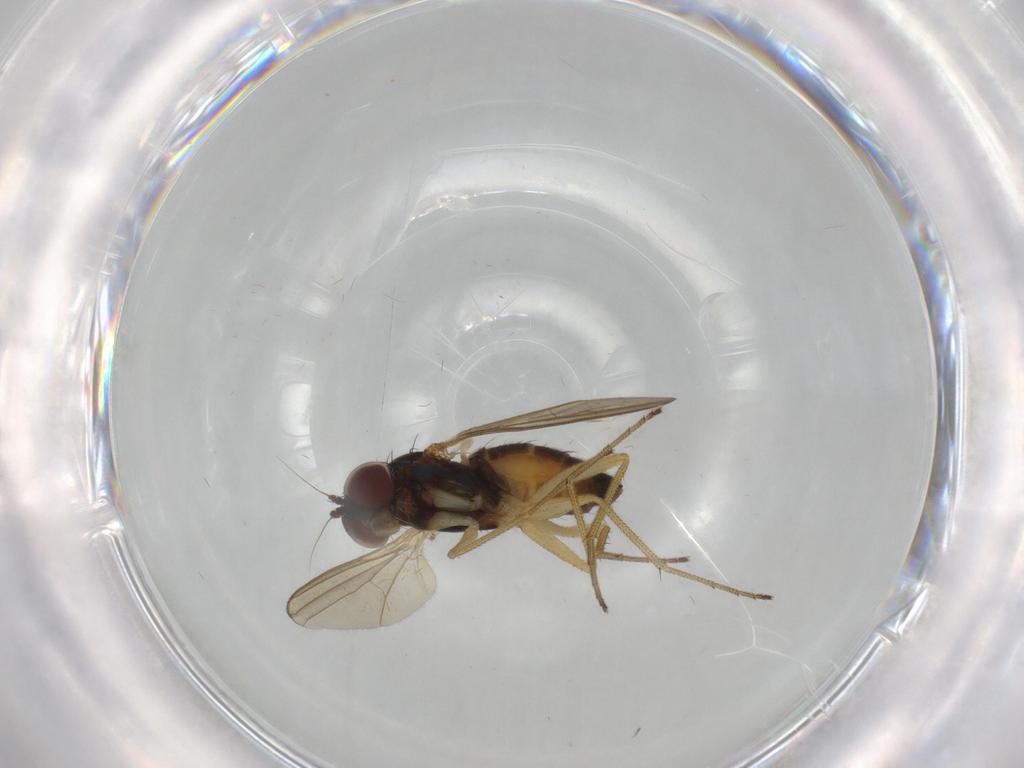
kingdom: Animalia
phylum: Arthropoda
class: Insecta
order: Diptera
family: Dolichopodidae
